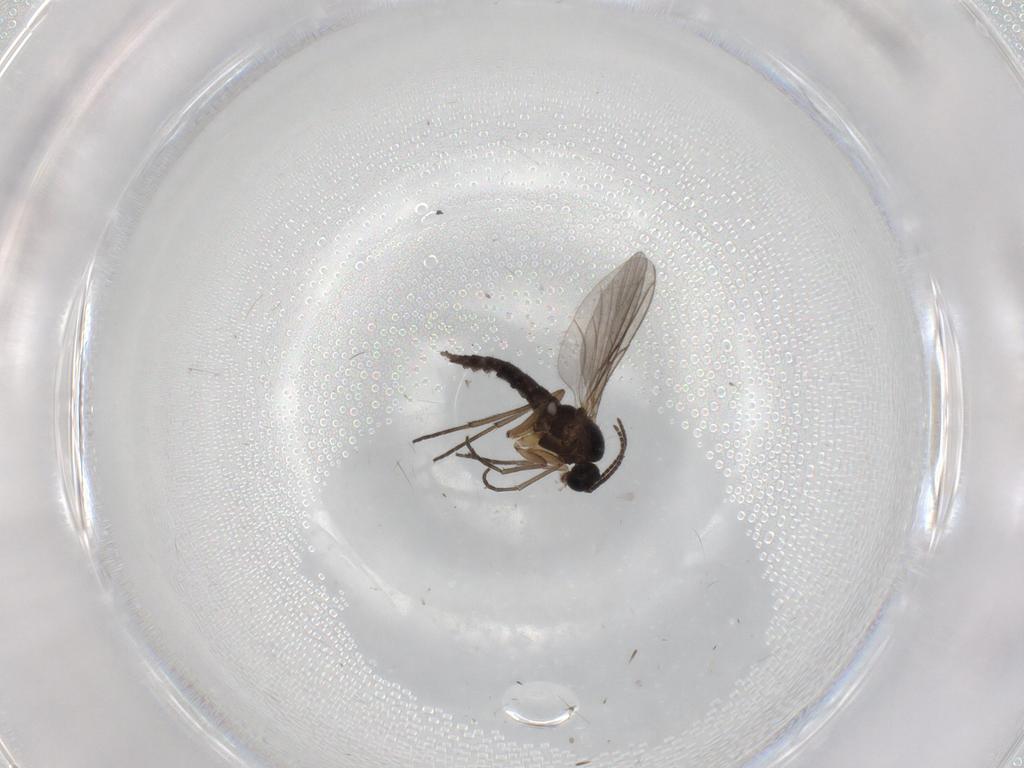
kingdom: Animalia
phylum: Arthropoda
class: Insecta
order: Diptera
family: Sciaridae
